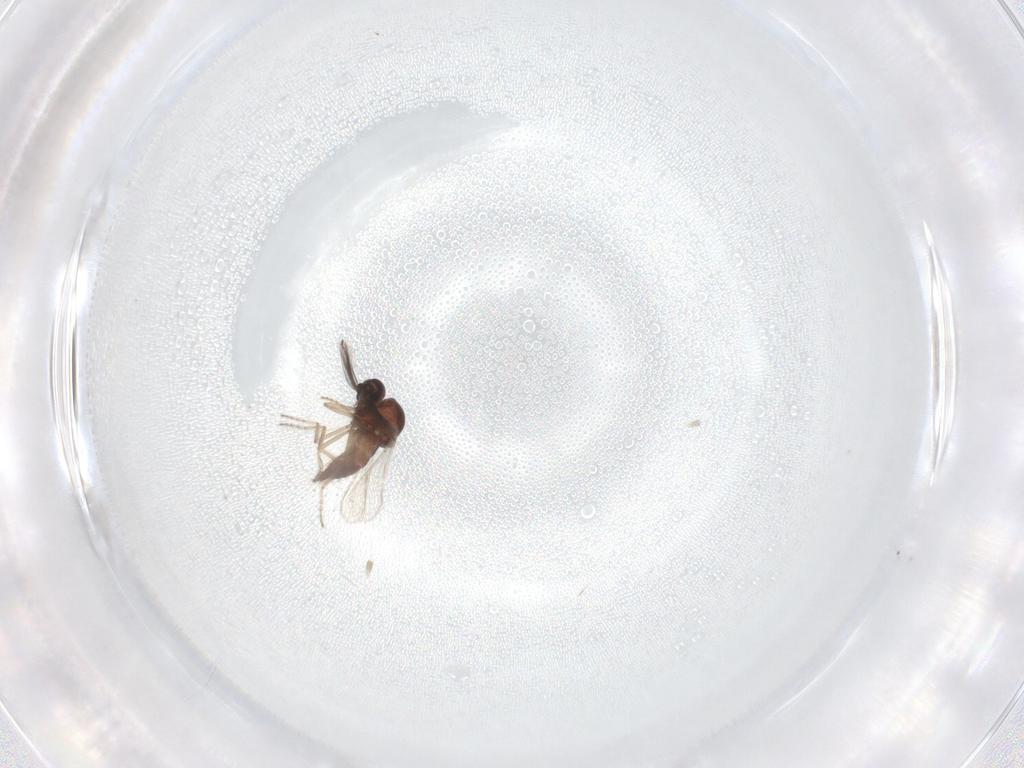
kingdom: Animalia
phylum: Arthropoda
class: Insecta
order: Diptera
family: Ceratopogonidae
